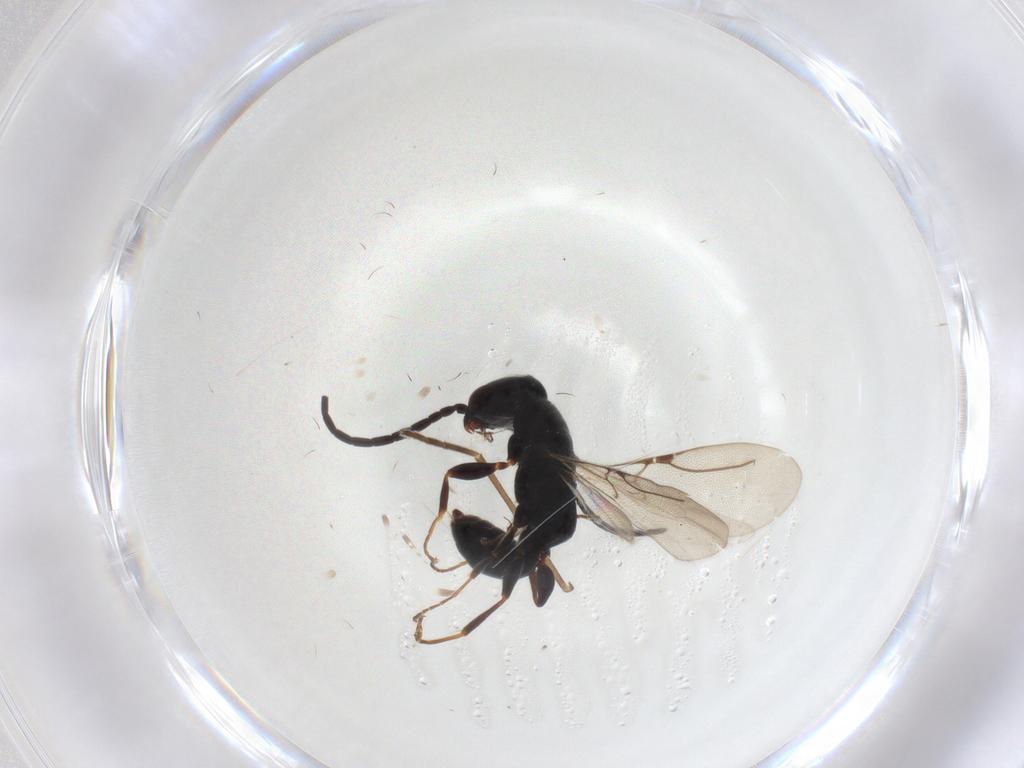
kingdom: Animalia
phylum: Arthropoda
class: Insecta
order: Hymenoptera
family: Bethylidae
